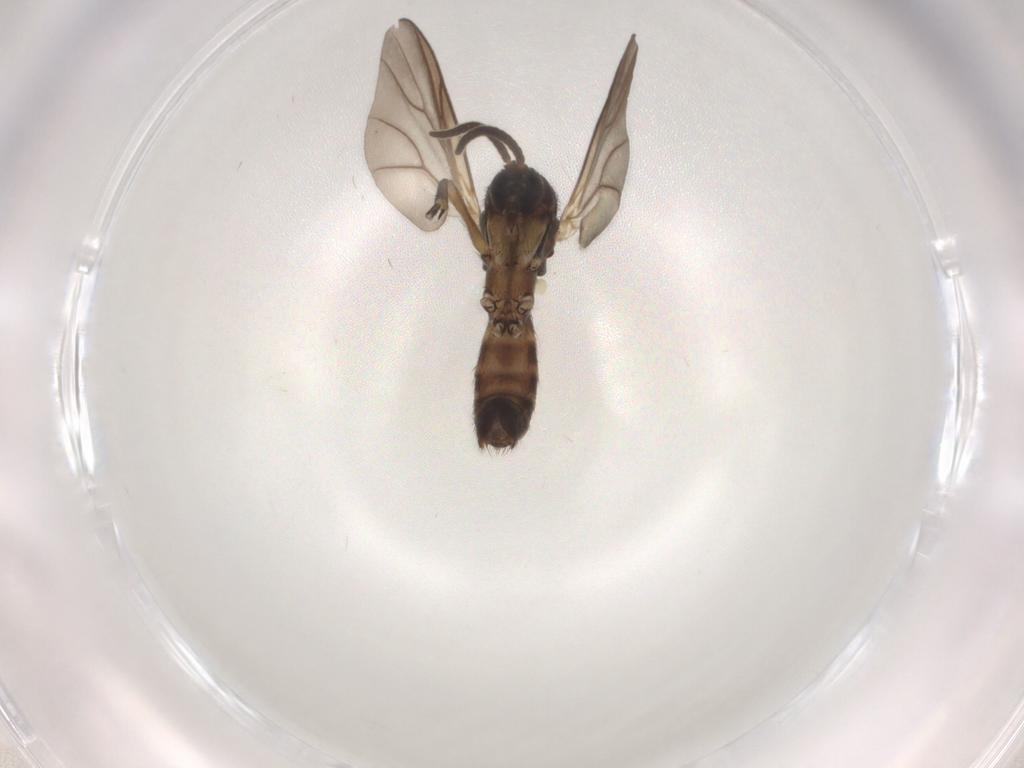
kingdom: Animalia
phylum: Arthropoda
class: Insecta
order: Diptera
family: Mycetophilidae
